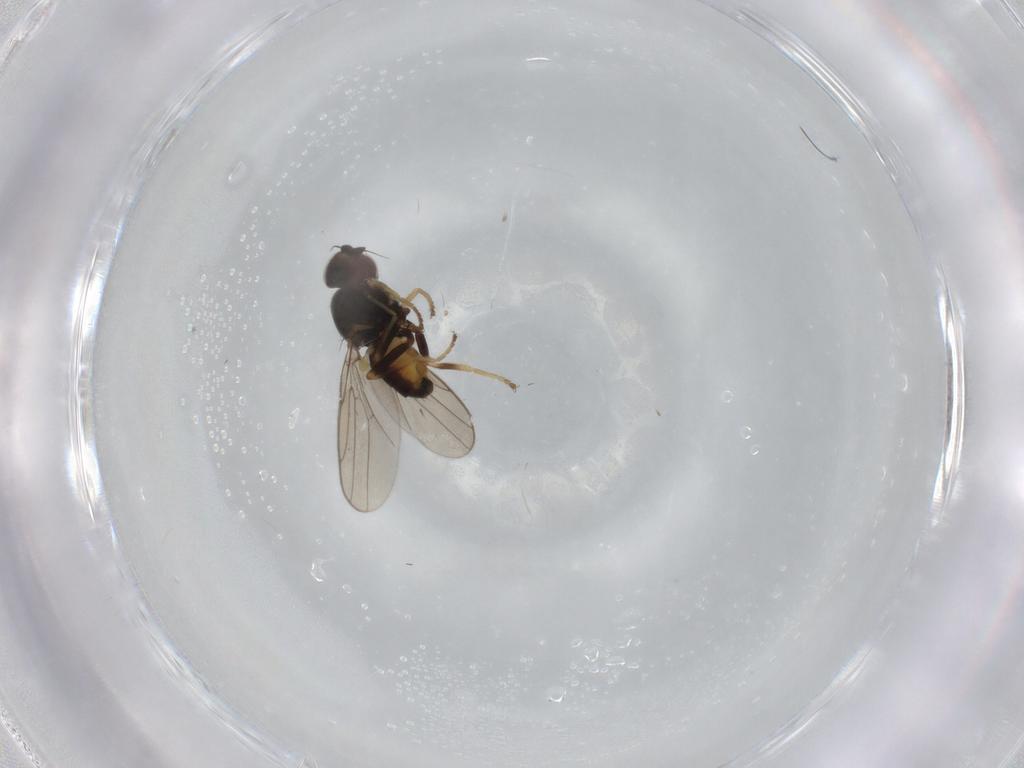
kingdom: Animalia
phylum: Arthropoda
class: Insecta
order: Diptera
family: Chloropidae
